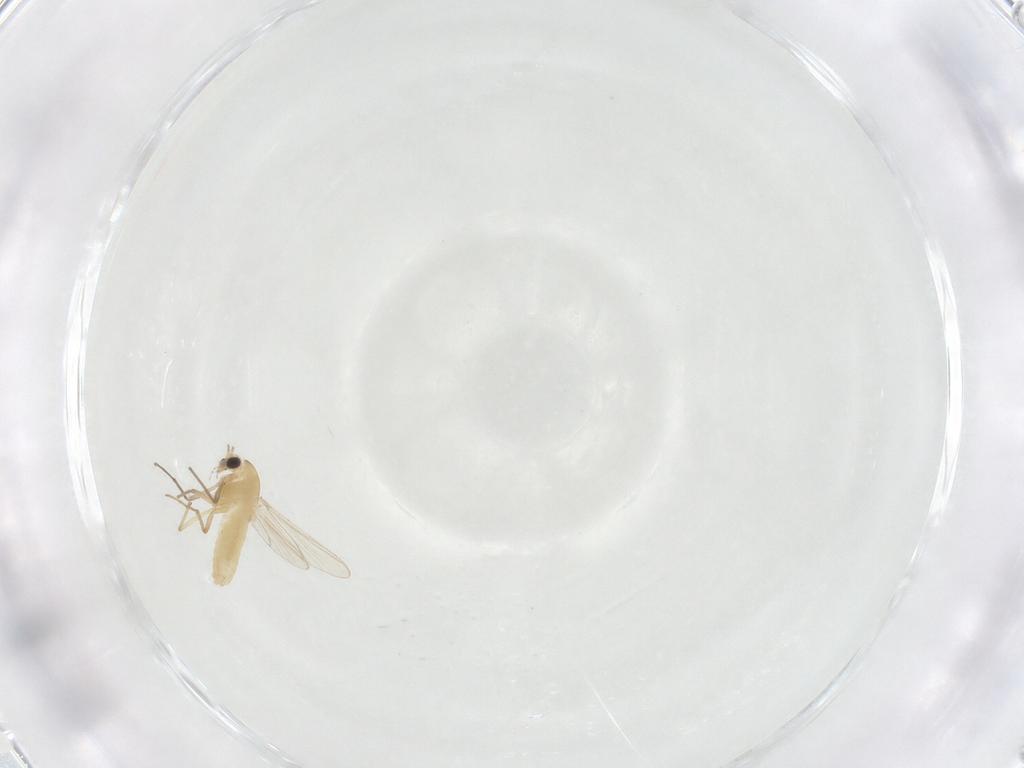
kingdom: Animalia
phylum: Arthropoda
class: Insecta
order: Diptera
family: Chironomidae
